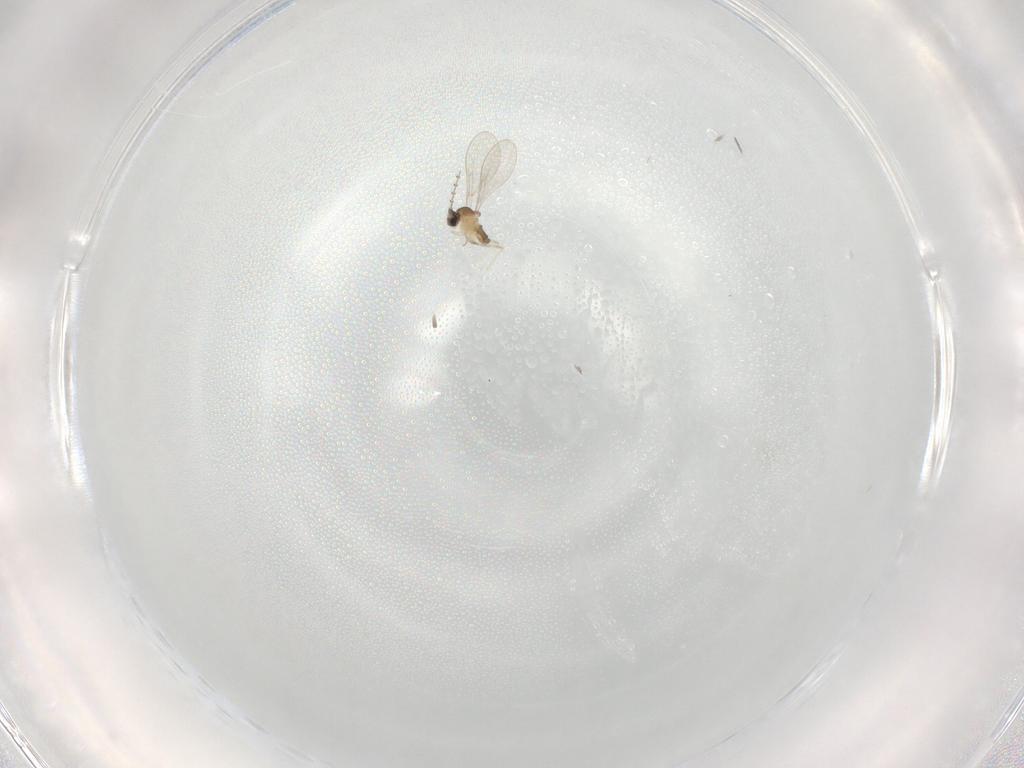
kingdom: Animalia
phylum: Arthropoda
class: Insecta
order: Diptera
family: Cecidomyiidae
